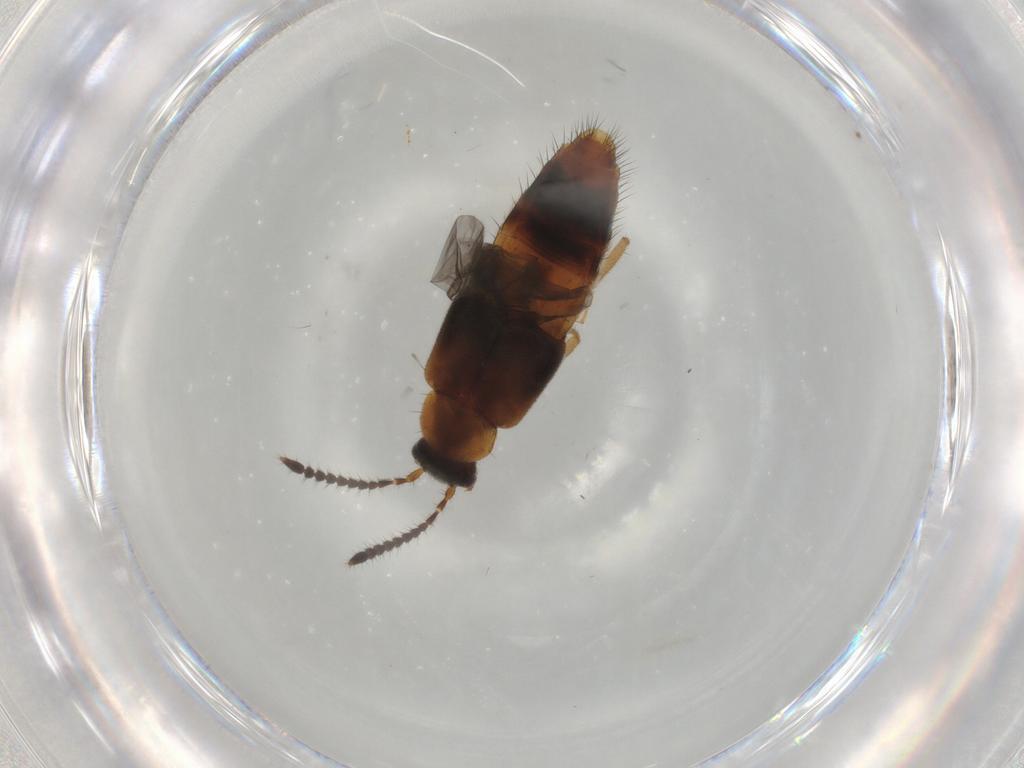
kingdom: Animalia
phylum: Arthropoda
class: Insecta
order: Coleoptera
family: Staphylinidae
